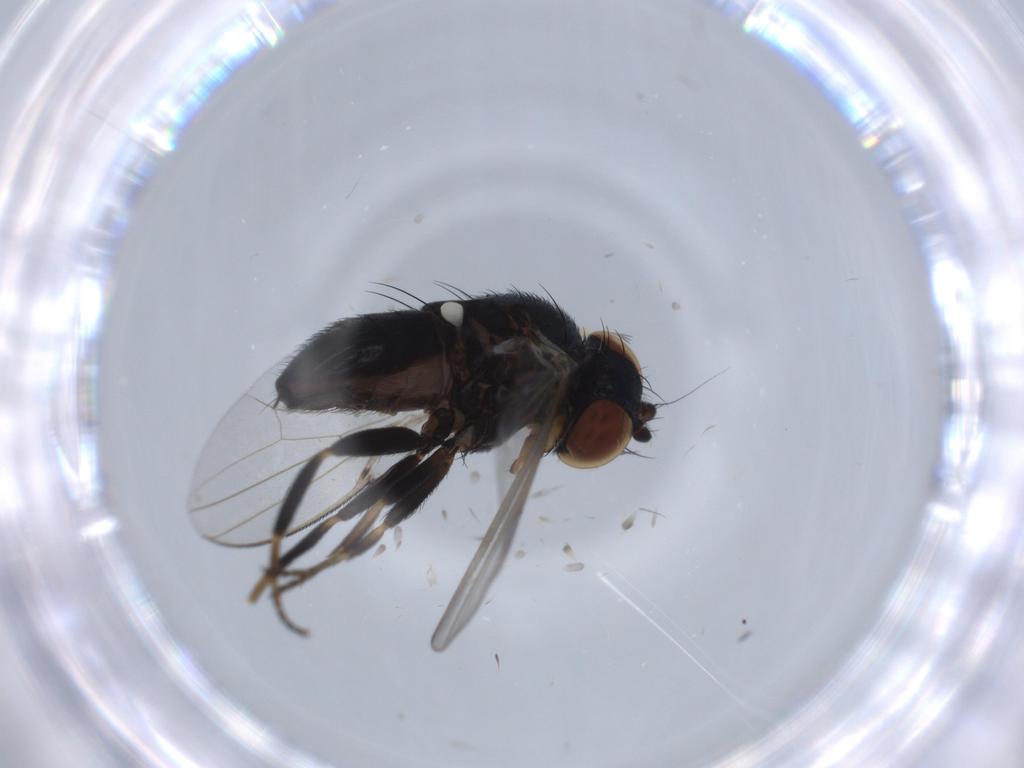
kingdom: Animalia
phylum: Arthropoda
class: Insecta
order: Diptera
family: Milichiidae
